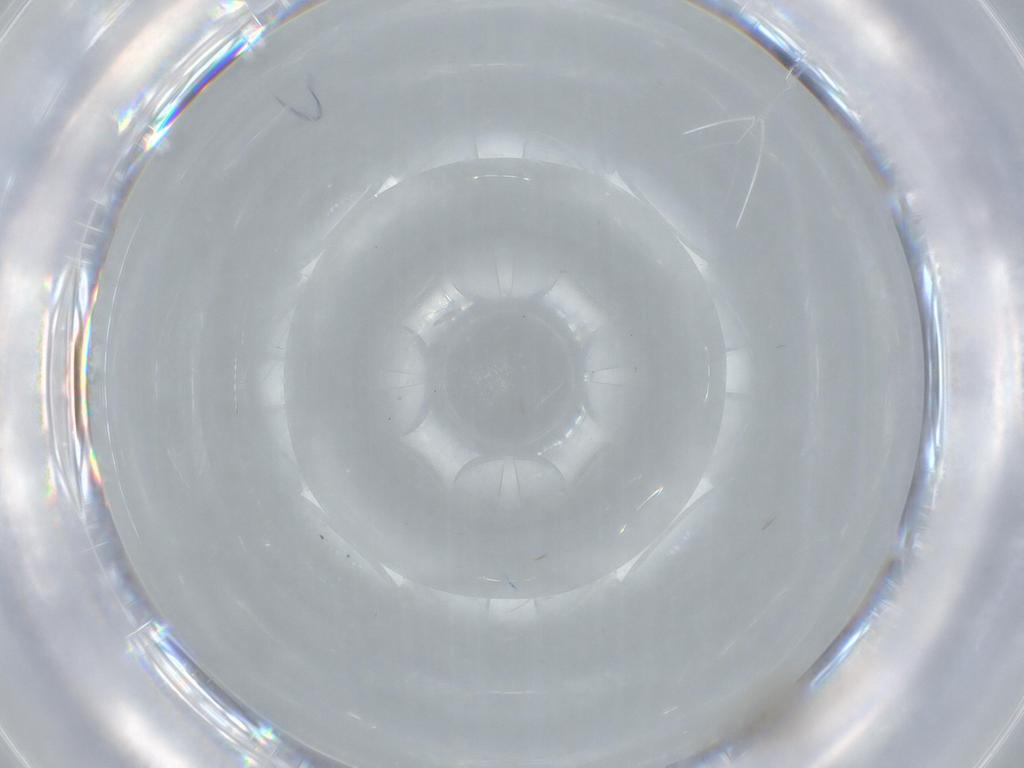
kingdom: Animalia
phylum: Arthropoda
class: Insecta
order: Diptera
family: Cecidomyiidae
